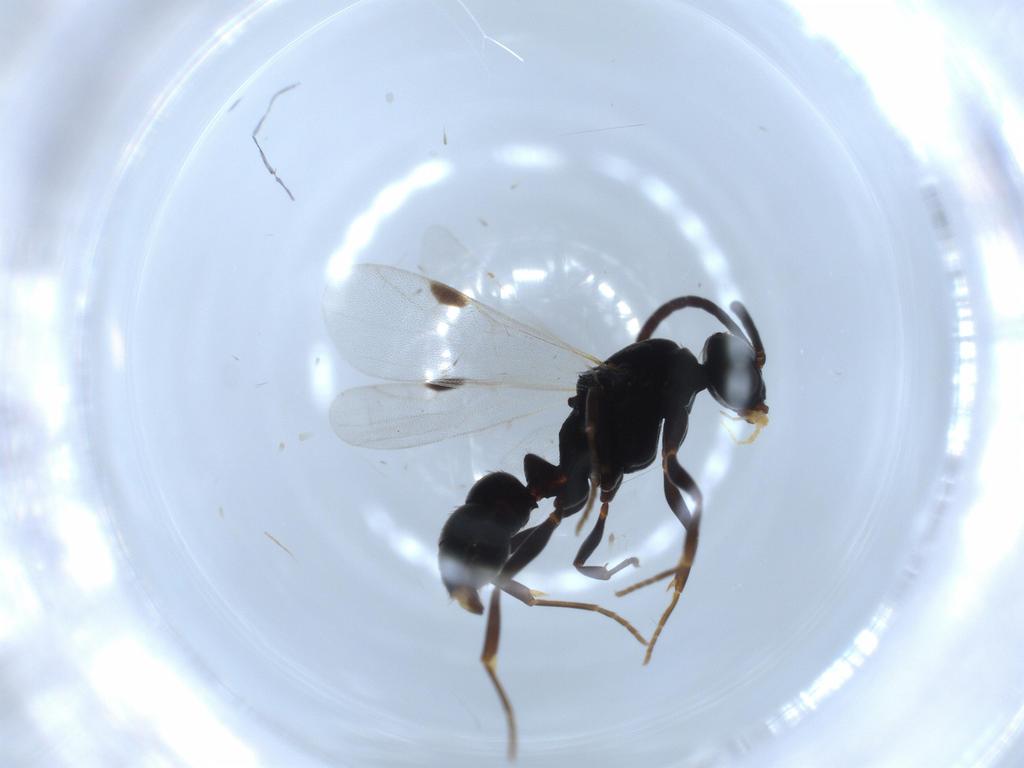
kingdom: Animalia
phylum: Arthropoda
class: Insecta
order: Hymenoptera
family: Formicidae
